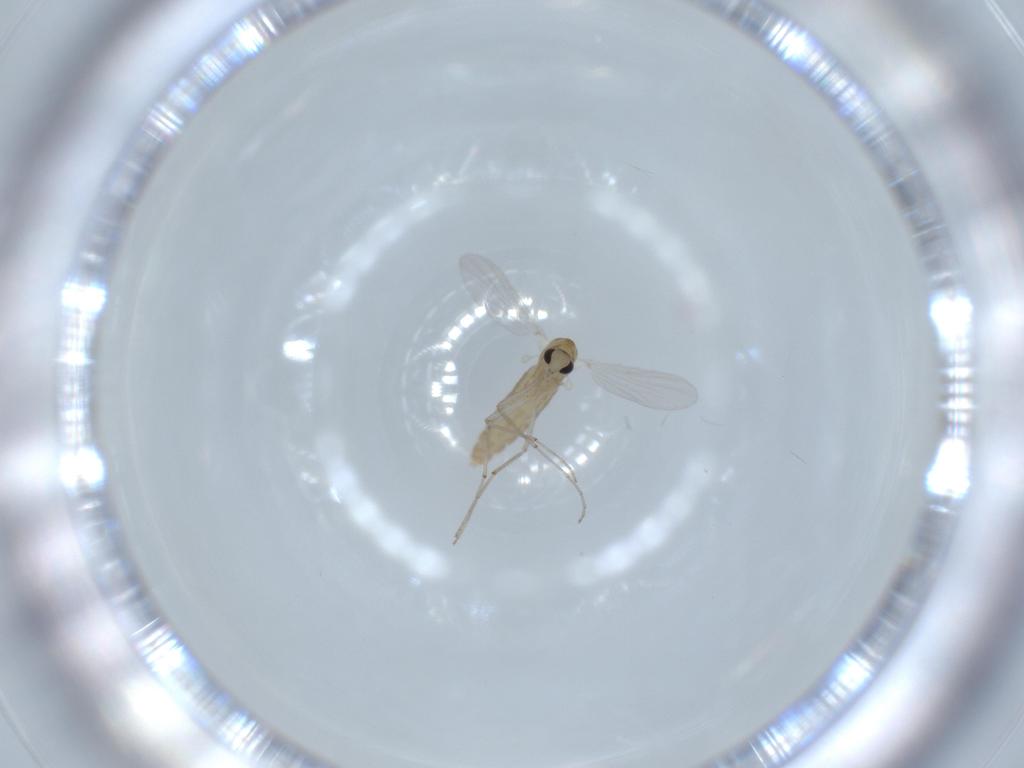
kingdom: Animalia
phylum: Arthropoda
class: Insecta
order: Diptera
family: Chironomidae
